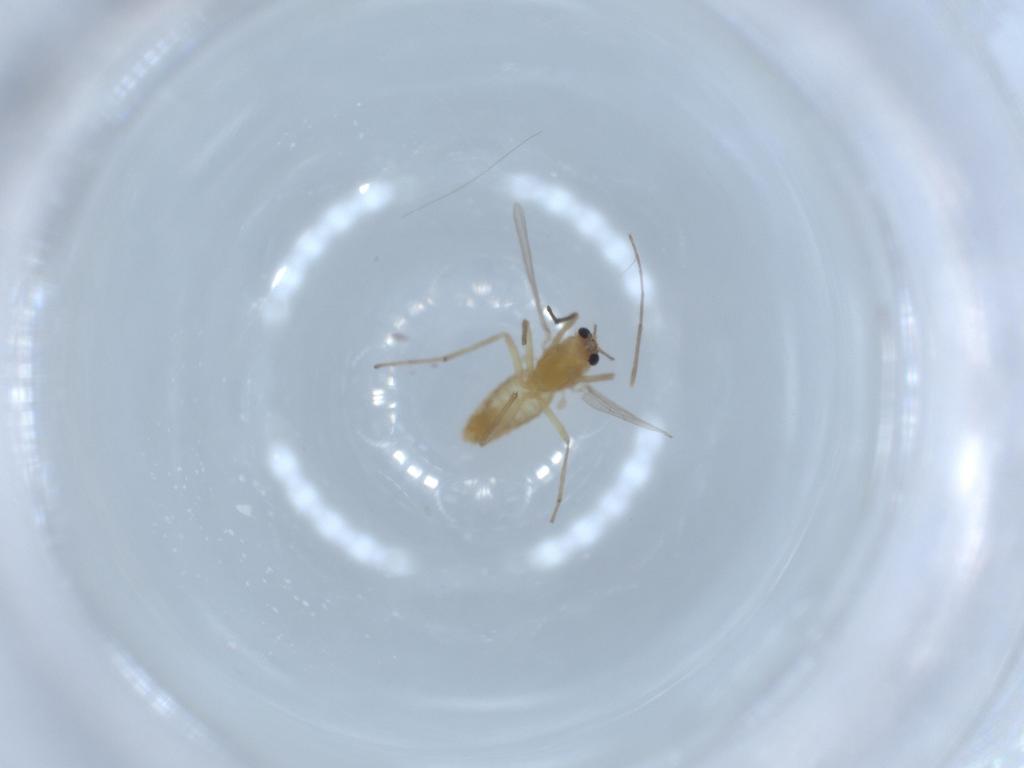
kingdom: Animalia
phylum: Arthropoda
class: Insecta
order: Diptera
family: Chironomidae
